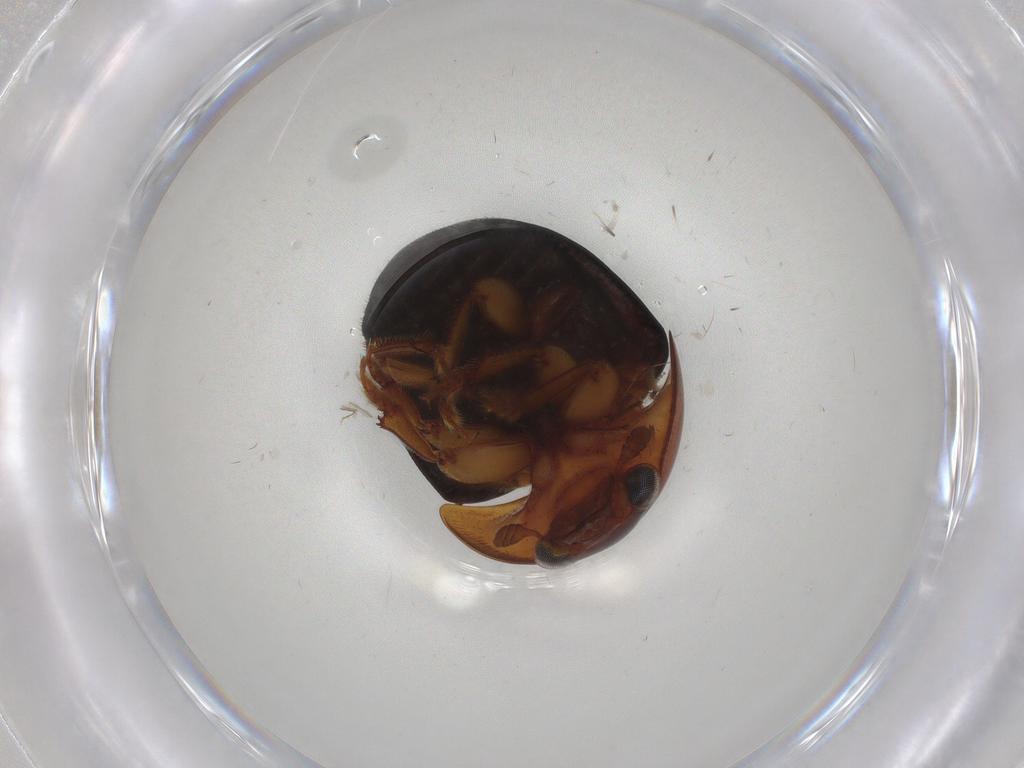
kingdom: Animalia
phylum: Arthropoda
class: Insecta
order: Coleoptera
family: Nitidulidae
